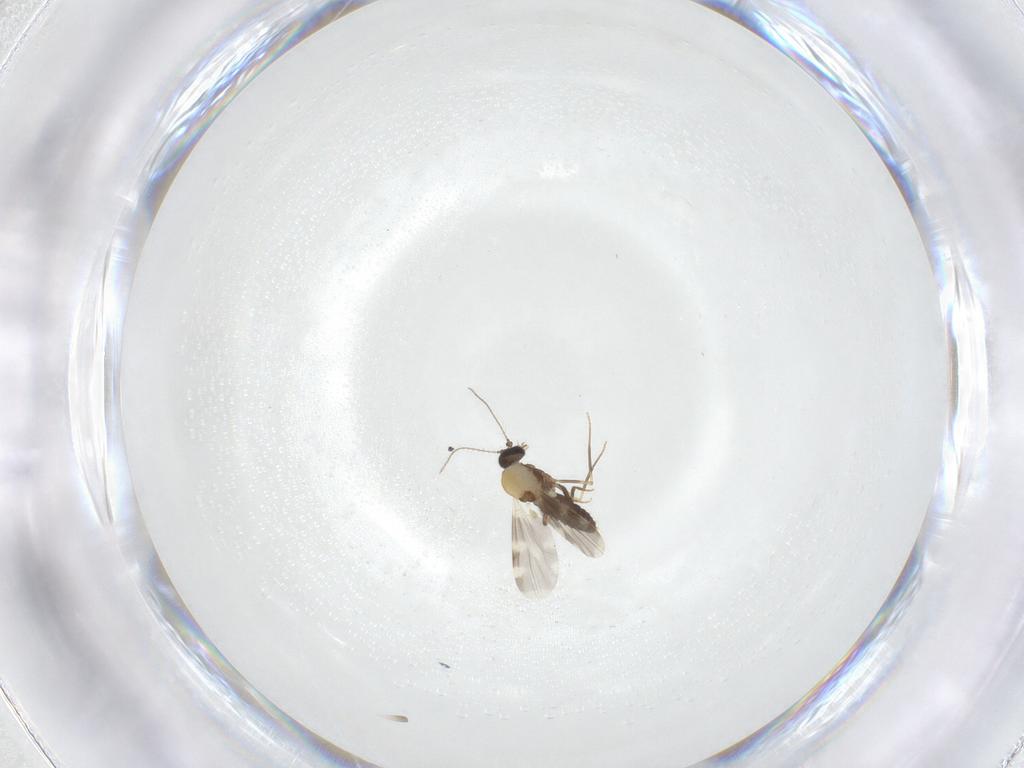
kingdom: Animalia
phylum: Arthropoda
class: Insecta
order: Diptera
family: Ceratopogonidae
